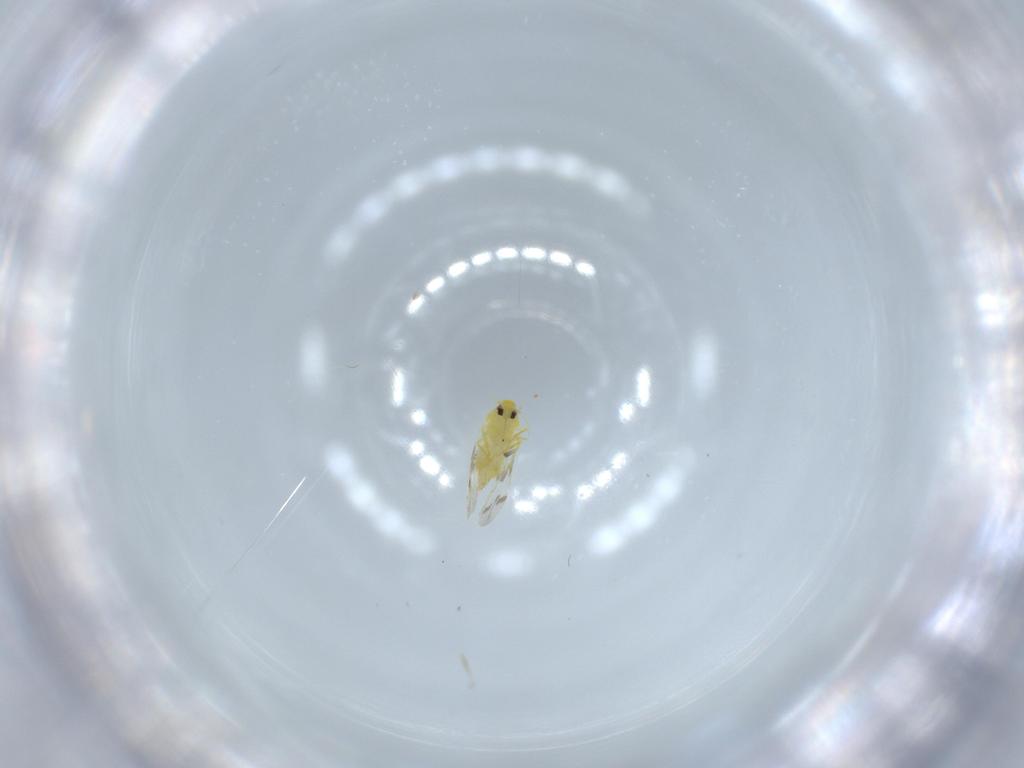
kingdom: Animalia
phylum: Arthropoda
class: Insecta
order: Hemiptera
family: Aleyrodidae
